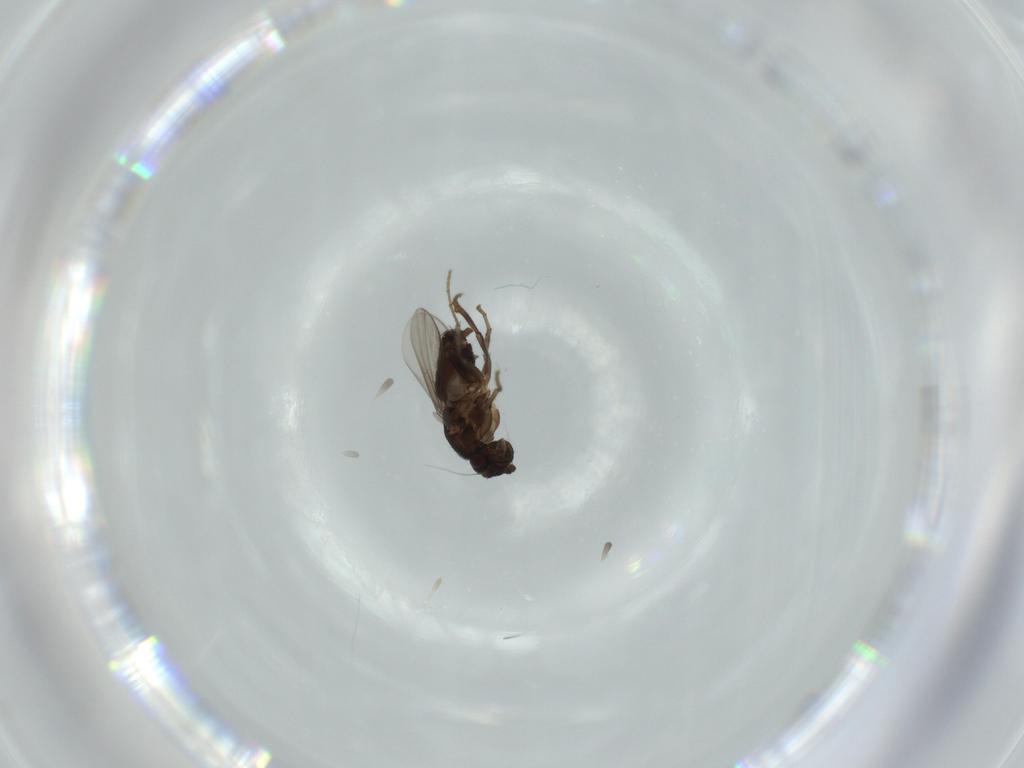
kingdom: Animalia
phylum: Arthropoda
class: Insecta
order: Diptera
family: Sphaeroceridae
